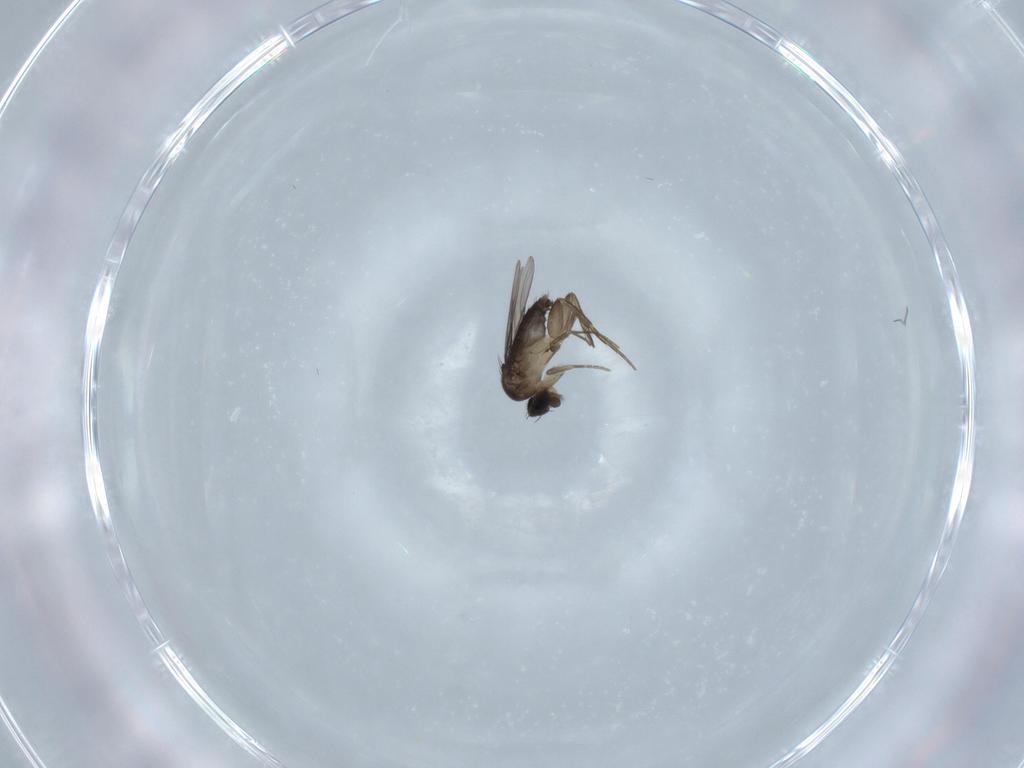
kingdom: Animalia
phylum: Arthropoda
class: Insecta
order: Diptera
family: Phoridae
